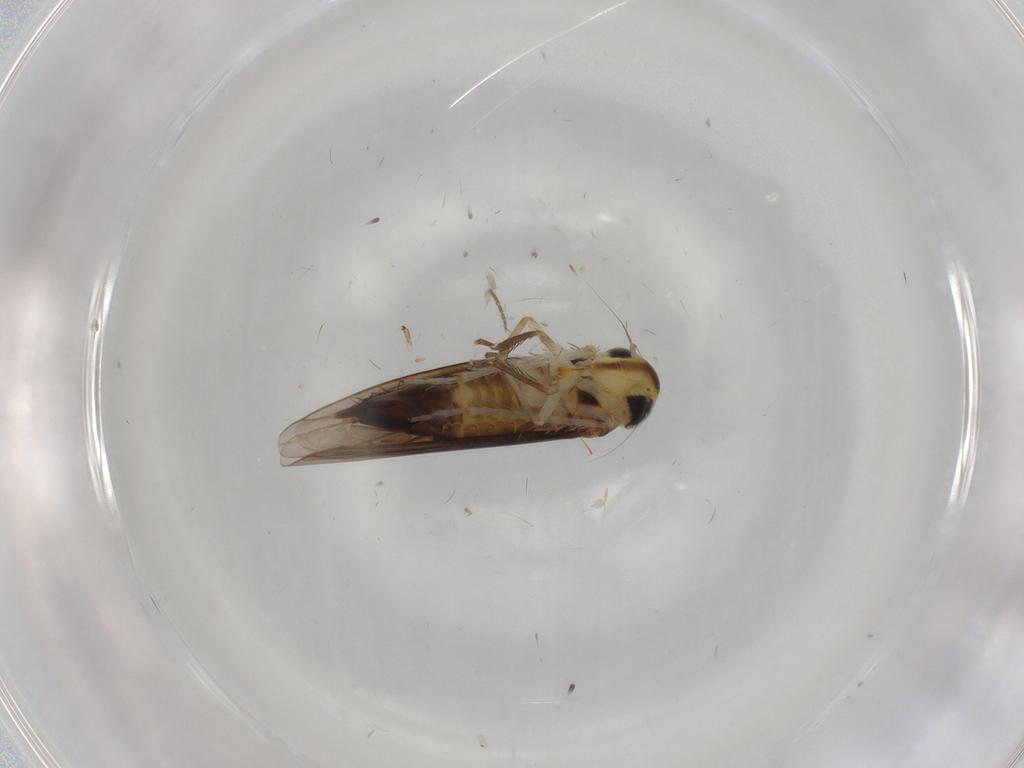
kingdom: Animalia
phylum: Arthropoda
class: Insecta
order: Hemiptera
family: Cicadellidae
